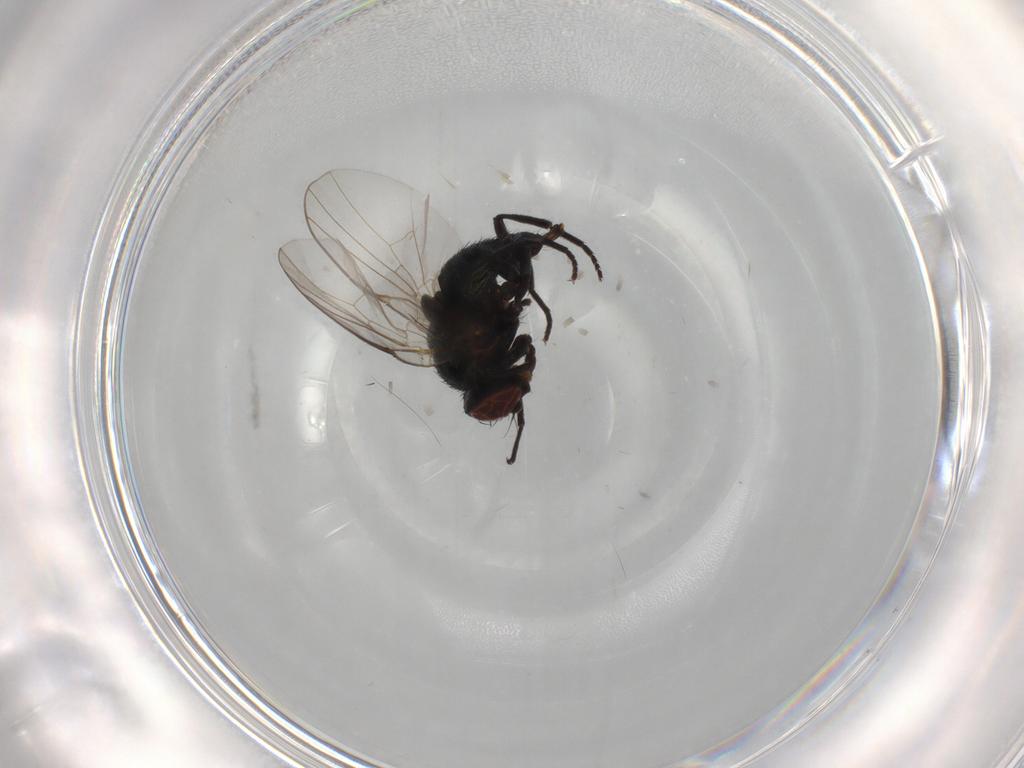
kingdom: Animalia
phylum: Arthropoda
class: Insecta
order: Diptera
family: Agromyzidae
